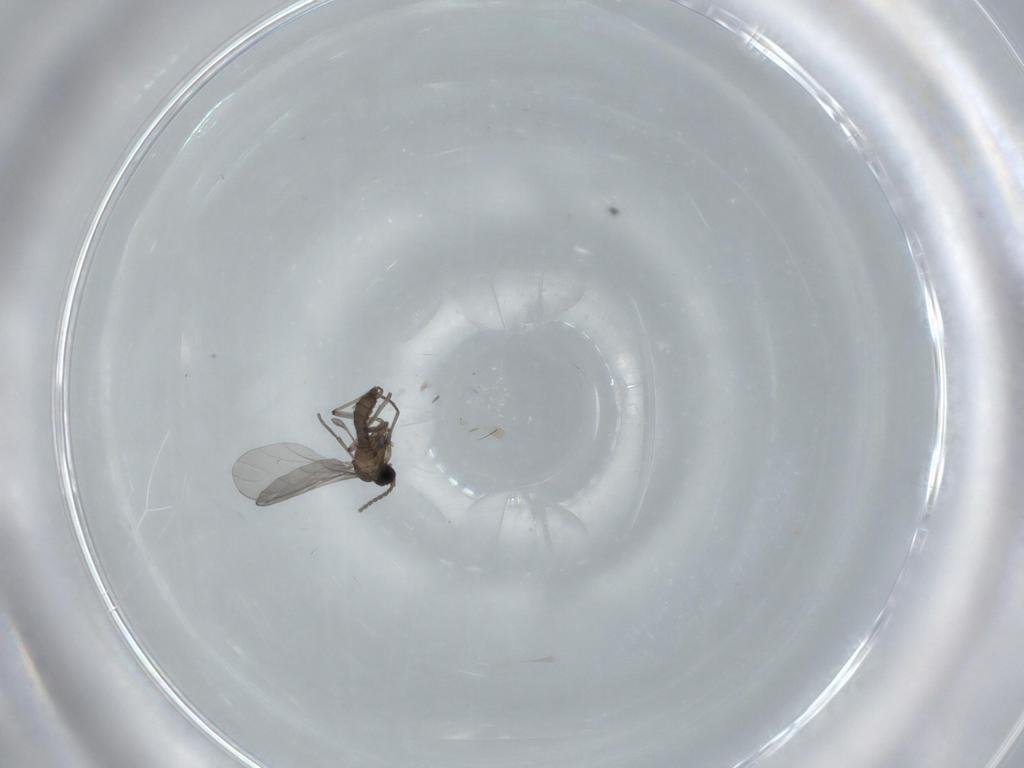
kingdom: Animalia
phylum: Arthropoda
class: Insecta
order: Diptera
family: Sciaridae
